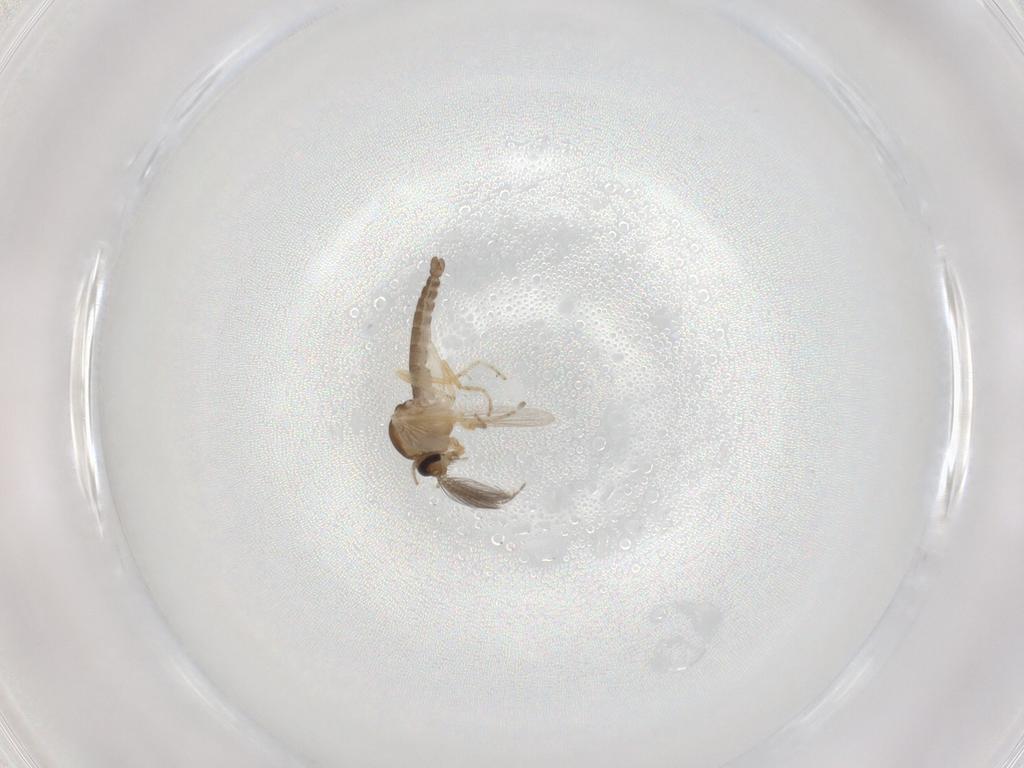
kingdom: Animalia
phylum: Arthropoda
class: Insecta
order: Diptera
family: Ceratopogonidae
